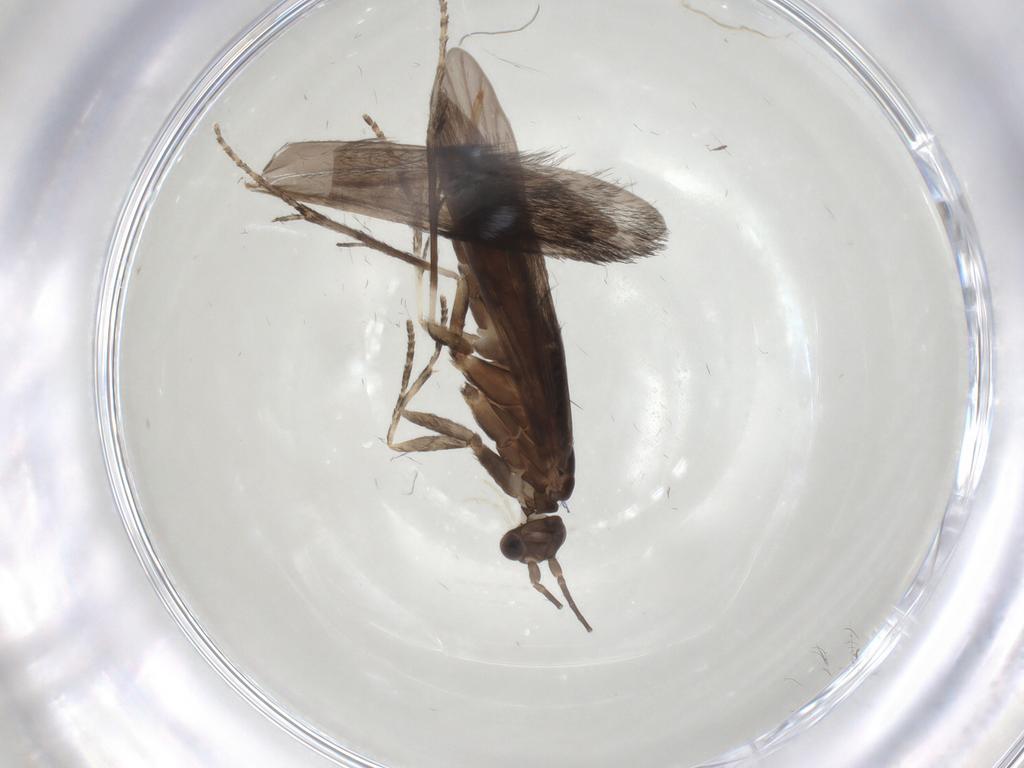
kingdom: Animalia
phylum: Arthropoda
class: Insecta
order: Trichoptera
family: Xiphocentronidae
